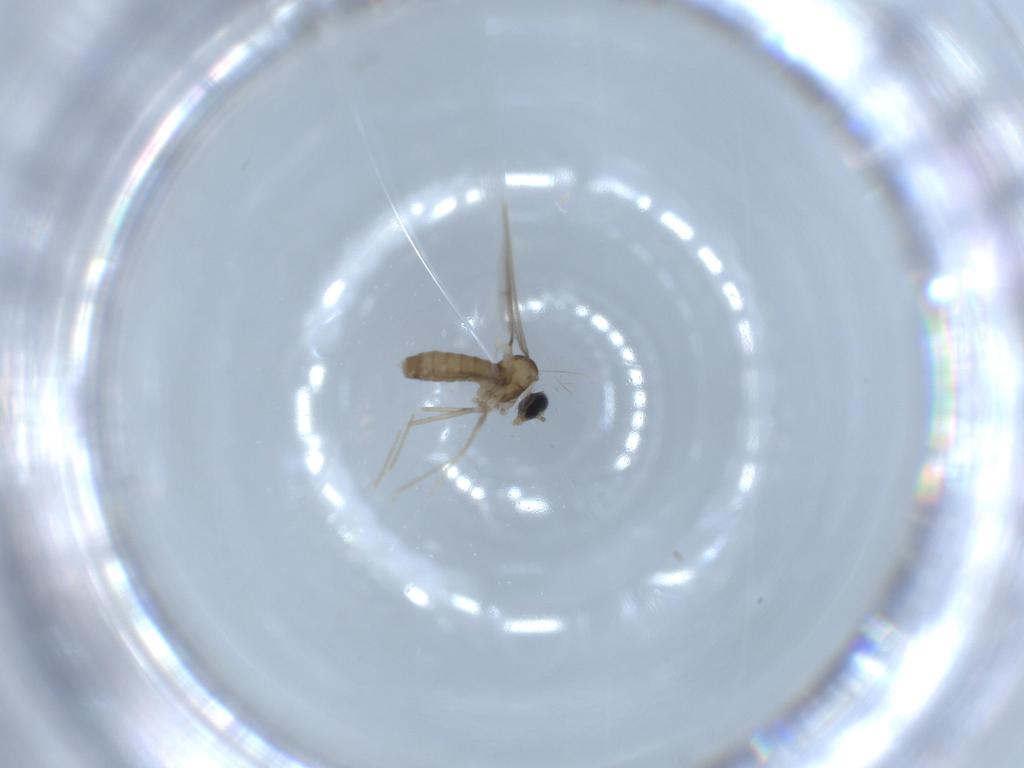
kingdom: Animalia
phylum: Arthropoda
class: Insecta
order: Diptera
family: Cecidomyiidae
